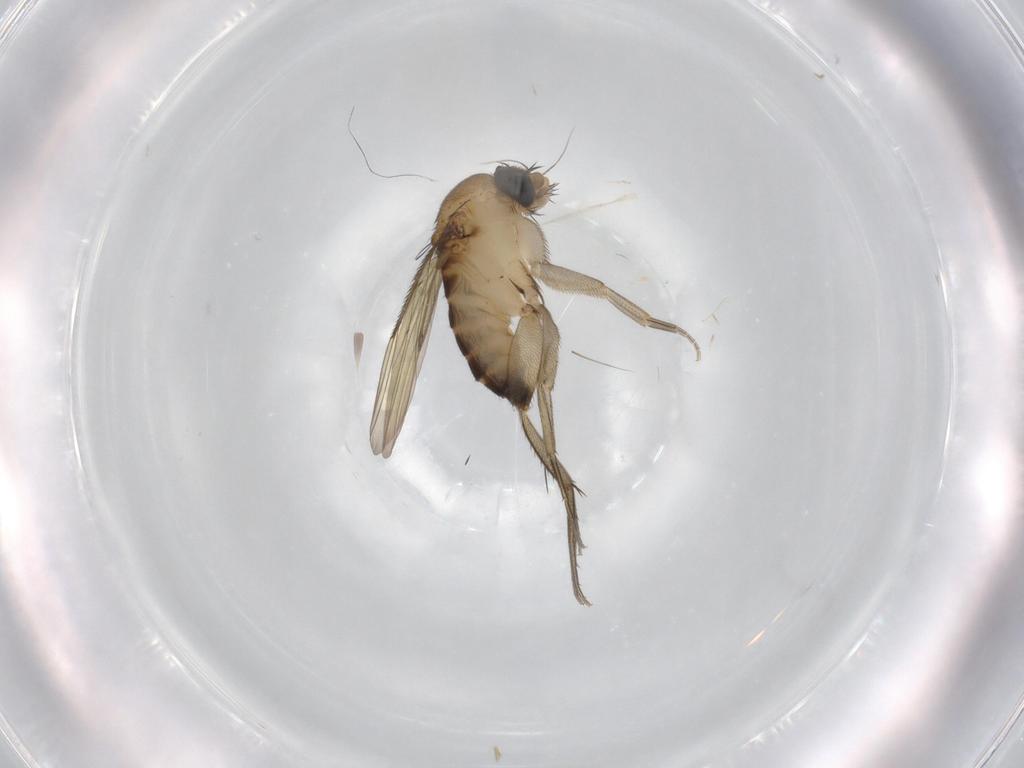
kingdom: Animalia
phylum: Arthropoda
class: Insecta
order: Diptera
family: Phoridae
